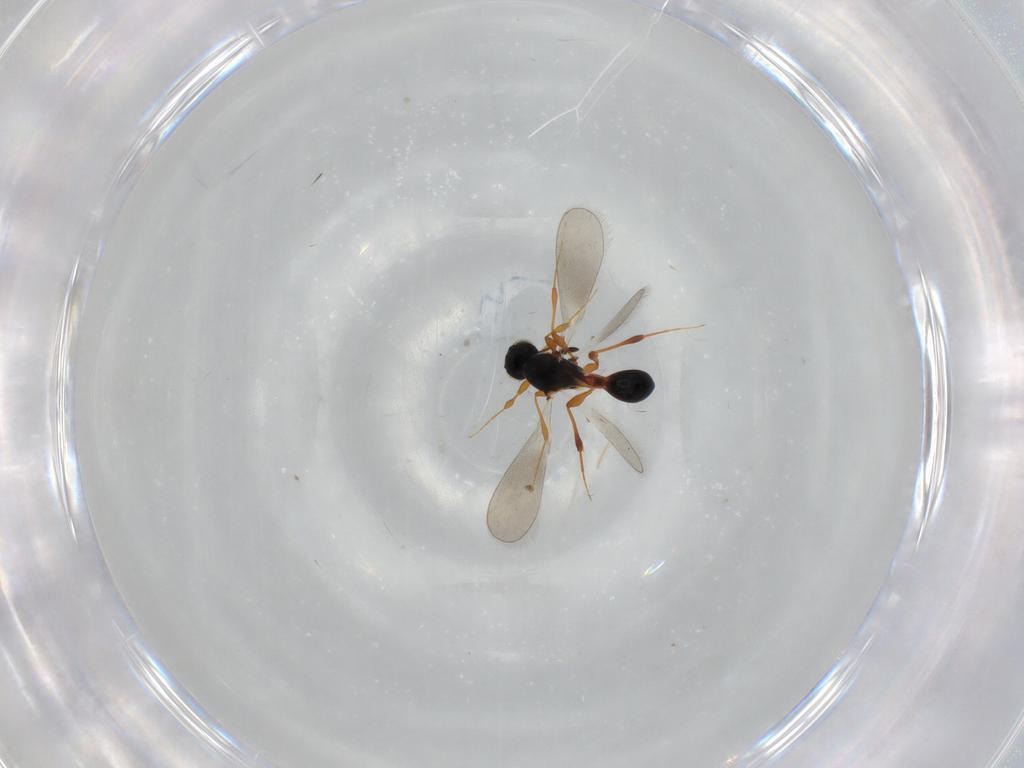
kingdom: Animalia
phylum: Arthropoda
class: Insecta
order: Hymenoptera
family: Platygastridae
